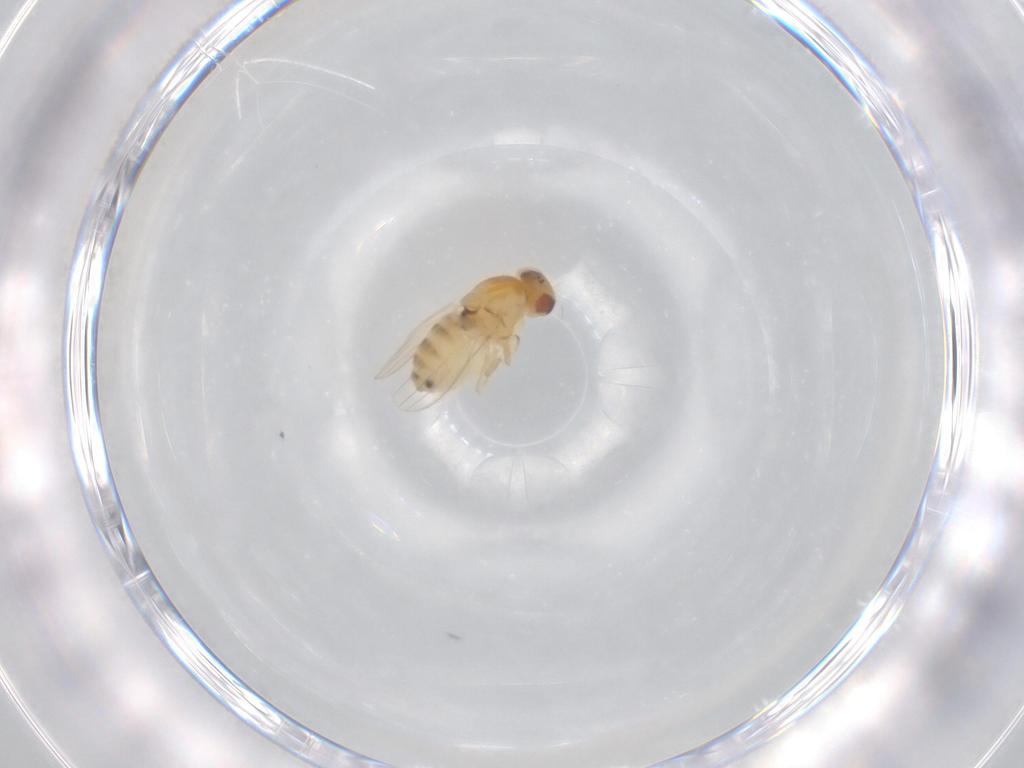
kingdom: Animalia
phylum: Arthropoda
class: Insecta
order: Diptera
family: Chyromyidae
